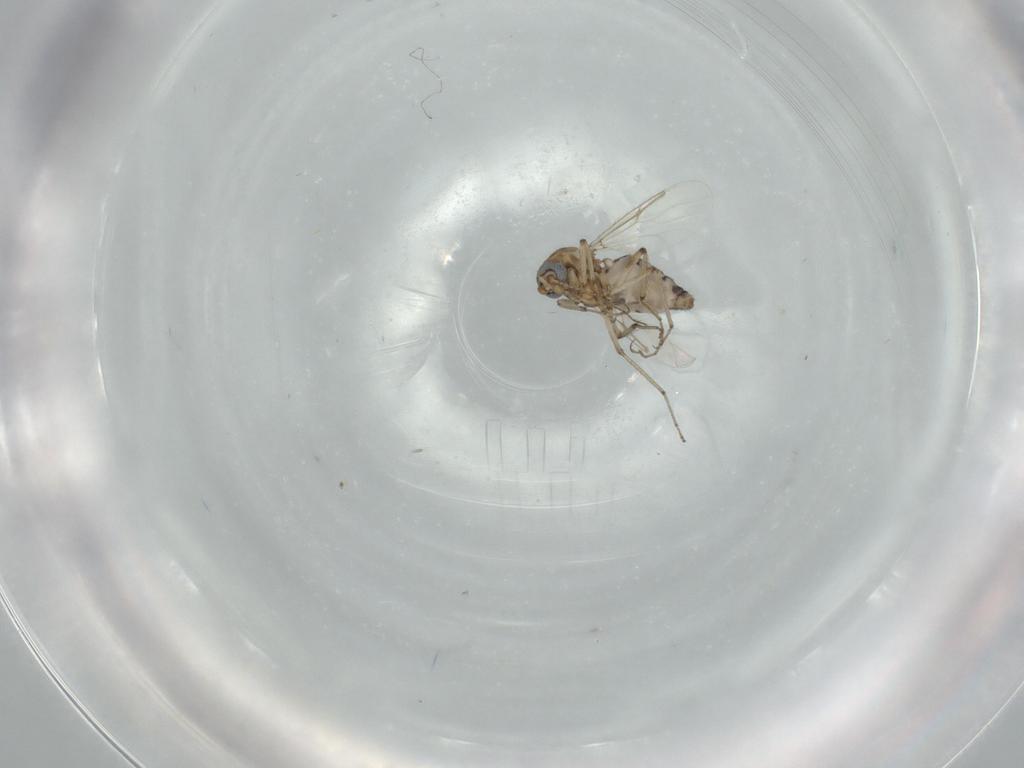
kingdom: Animalia
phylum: Arthropoda
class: Insecta
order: Diptera
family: Ceratopogonidae
